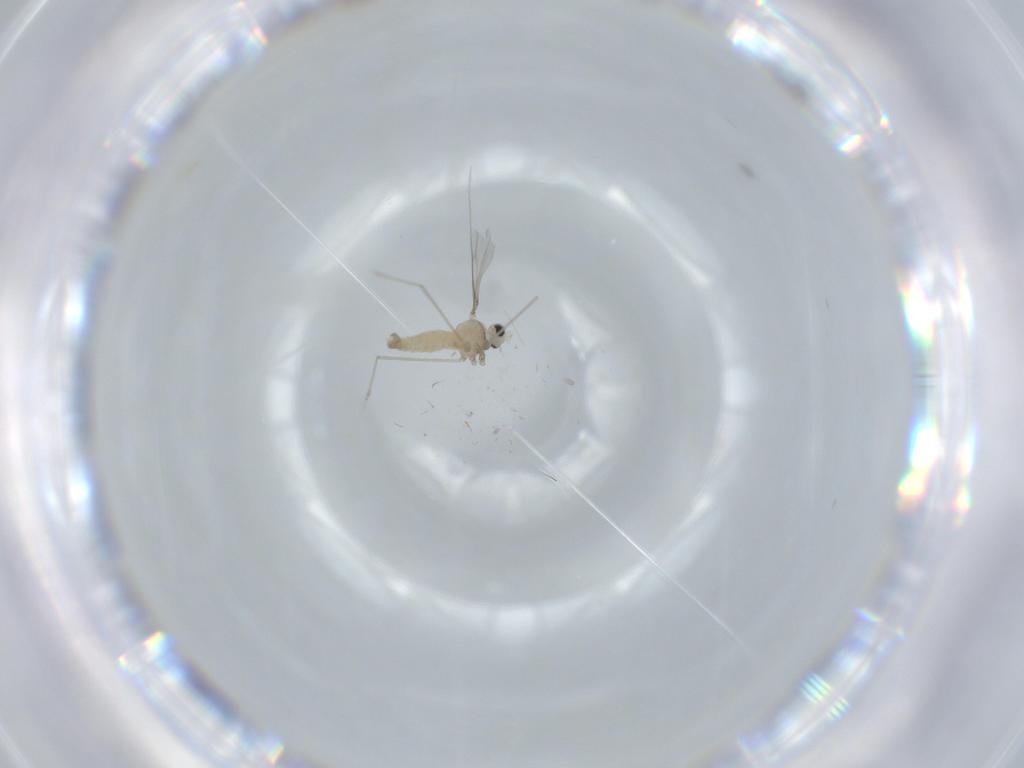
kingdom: Animalia
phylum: Arthropoda
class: Insecta
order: Diptera
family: Cecidomyiidae
